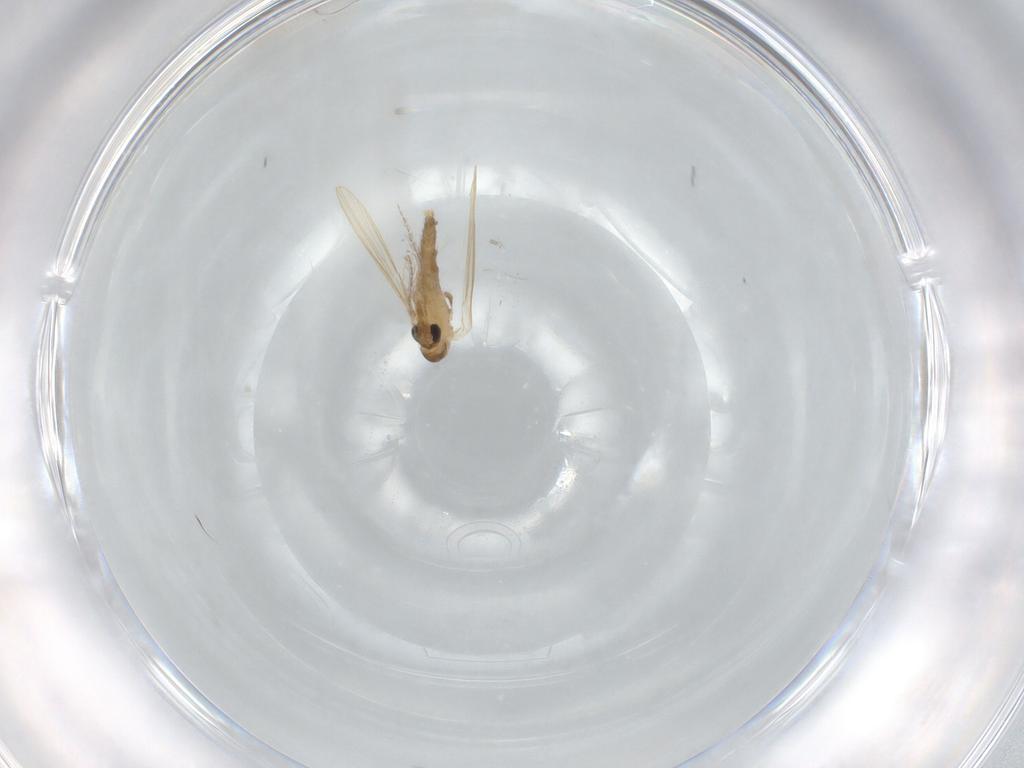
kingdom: Animalia
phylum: Arthropoda
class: Insecta
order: Diptera
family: Psychodidae
